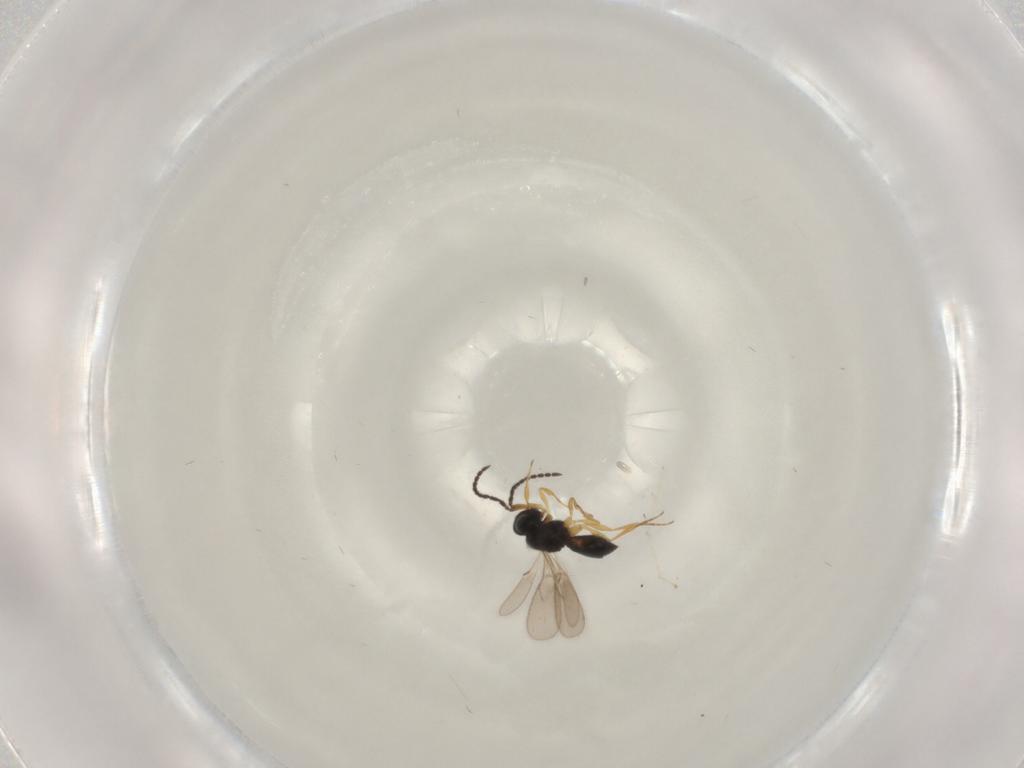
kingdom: Animalia
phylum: Arthropoda
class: Insecta
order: Hymenoptera
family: Scelionidae
